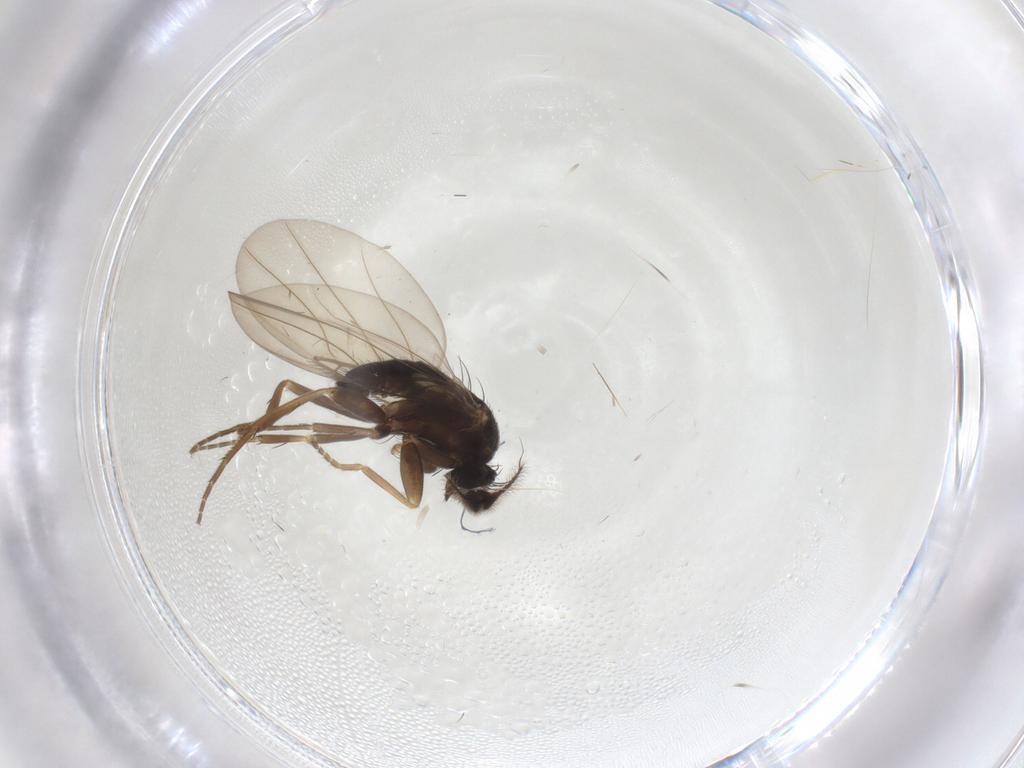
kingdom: Animalia
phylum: Arthropoda
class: Insecta
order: Diptera
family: Phoridae
